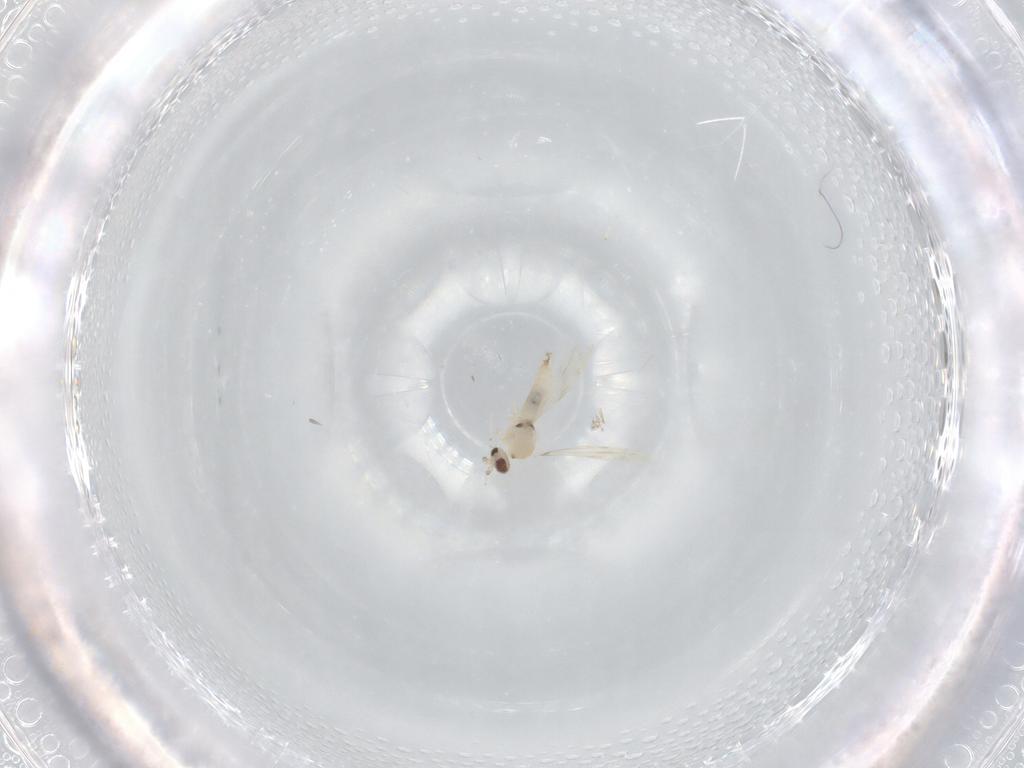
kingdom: Animalia
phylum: Arthropoda
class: Insecta
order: Diptera
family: Cecidomyiidae
